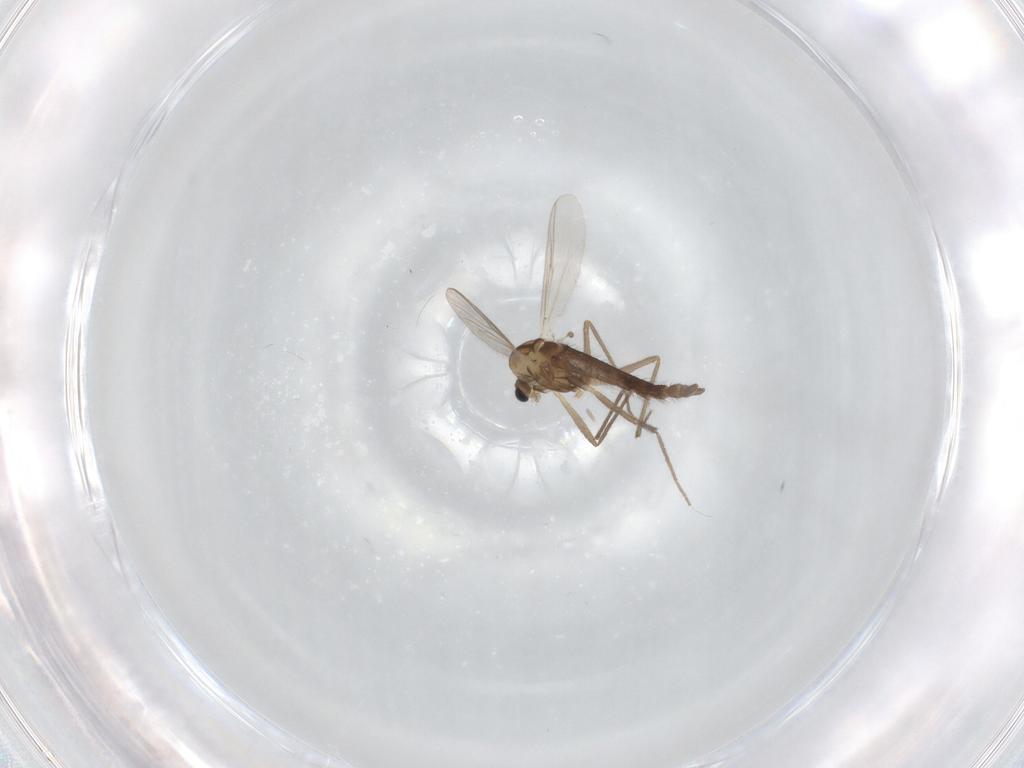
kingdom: Animalia
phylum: Arthropoda
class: Insecta
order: Diptera
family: Chironomidae
